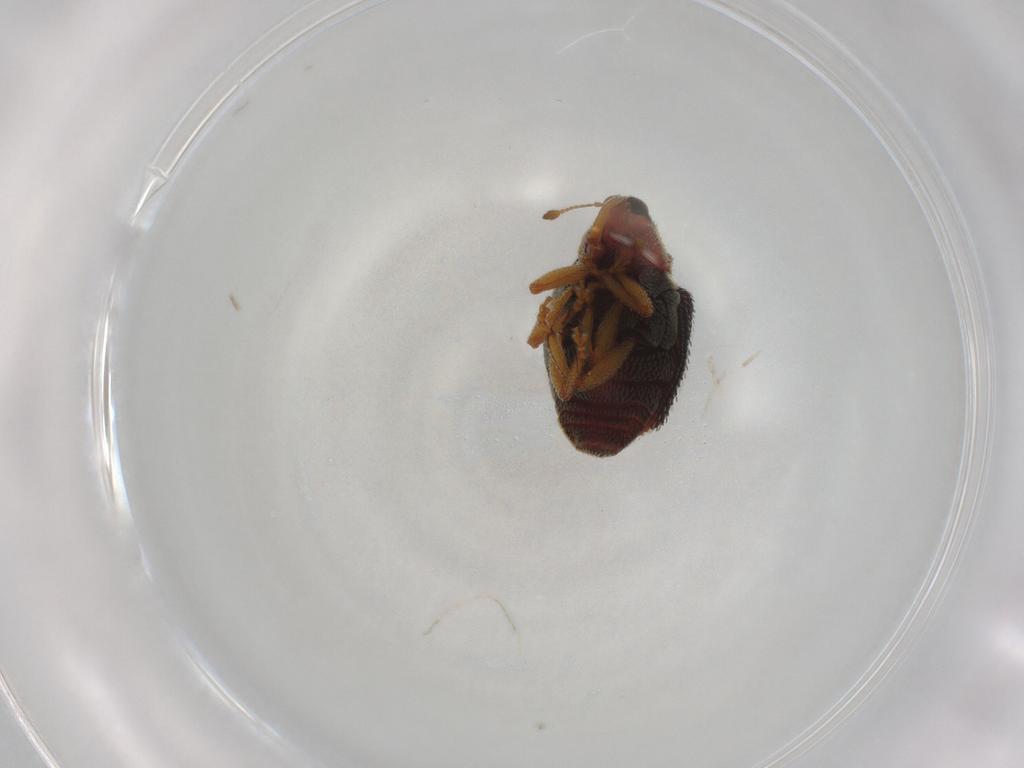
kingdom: Animalia
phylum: Arthropoda
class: Insecta
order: Coleoptera
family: Curculionidae
